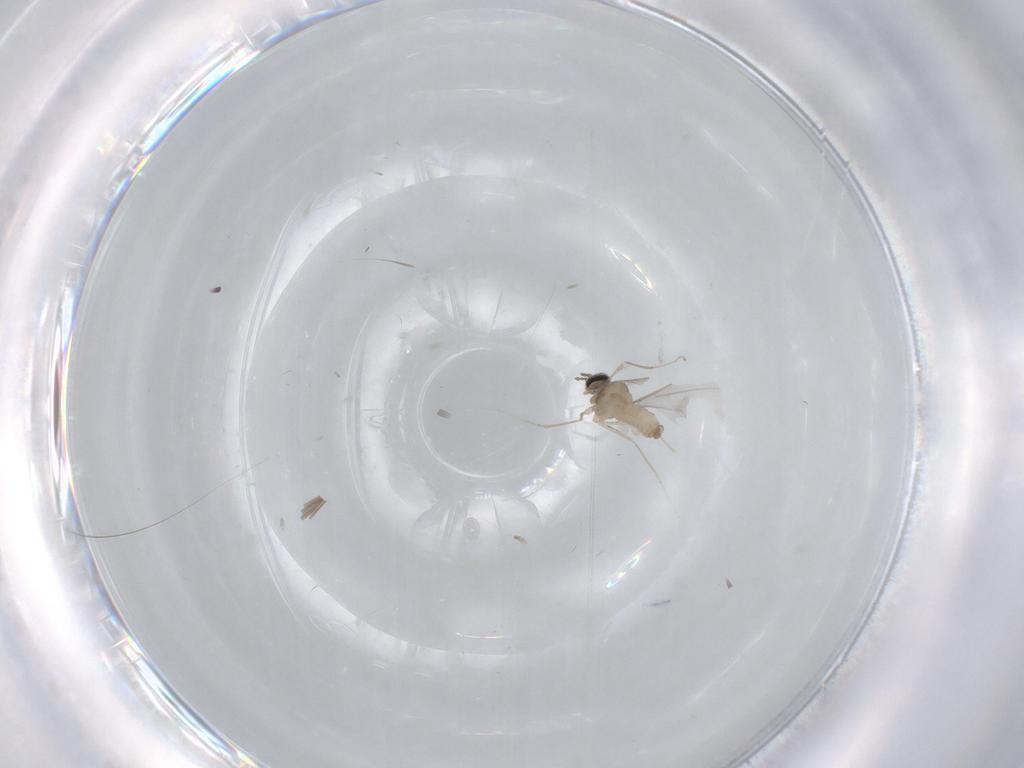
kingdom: Animalia
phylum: Arthropoda
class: Insecta
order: Diptera
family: Cecidomyiidae
